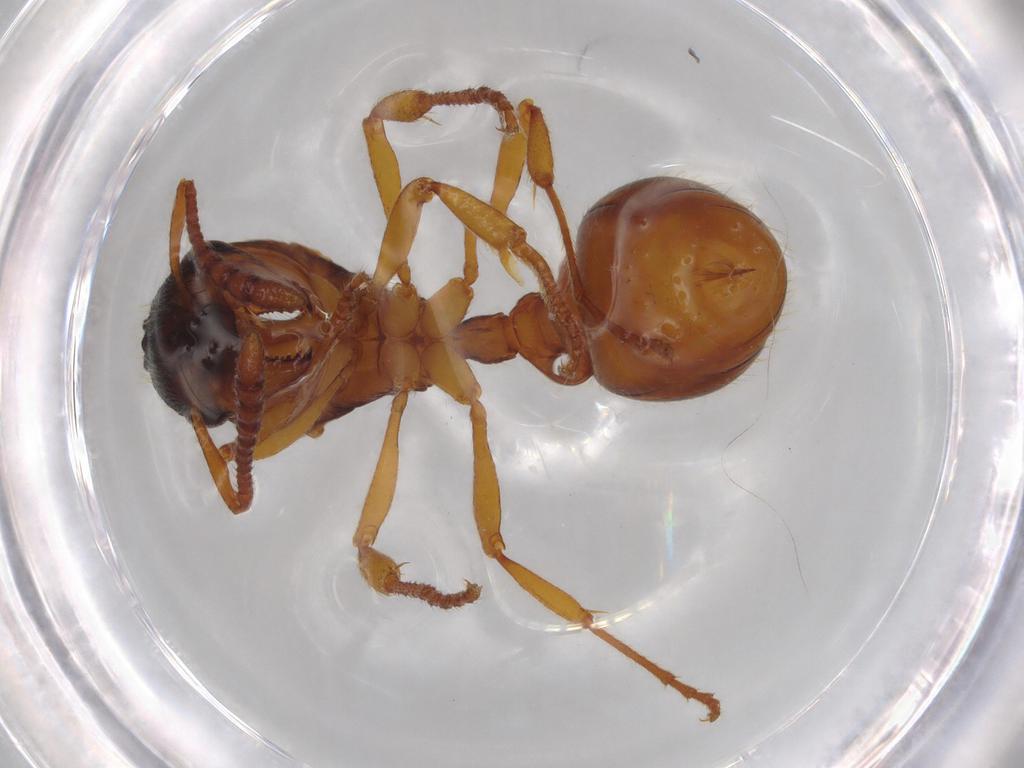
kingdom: Animalia
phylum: Arthropoda
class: Insecta
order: Hymenoptera
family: Formicidae
